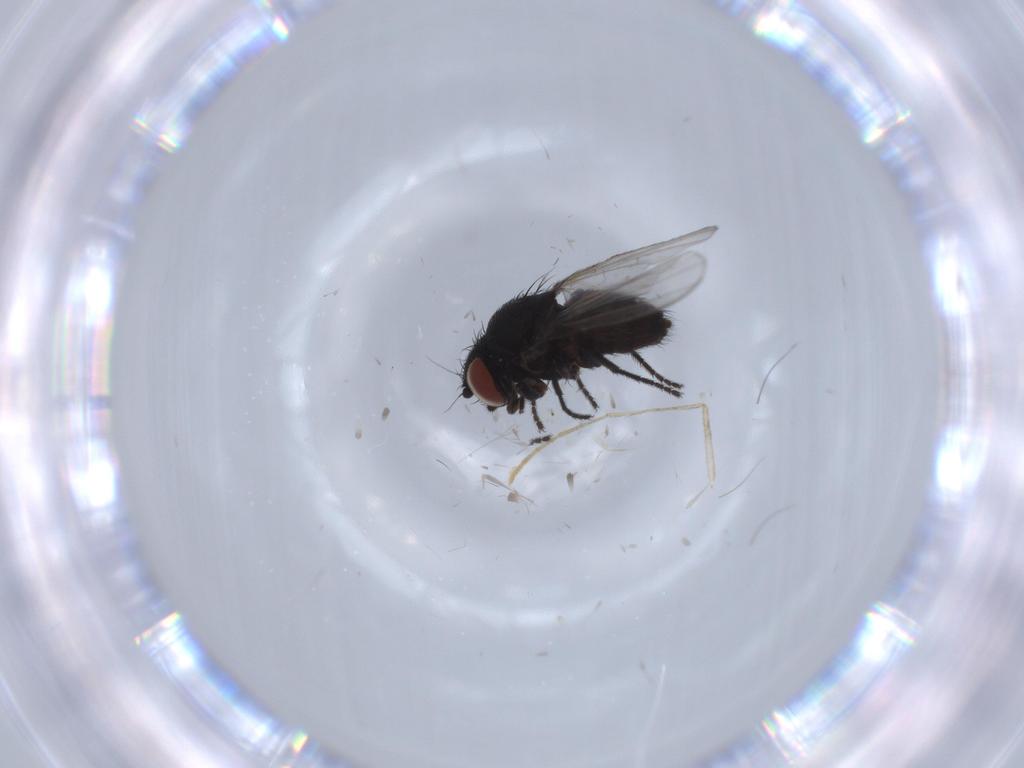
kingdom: Animalia
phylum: Arthropoda
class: Insecta
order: Diptera
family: Milichiidae
